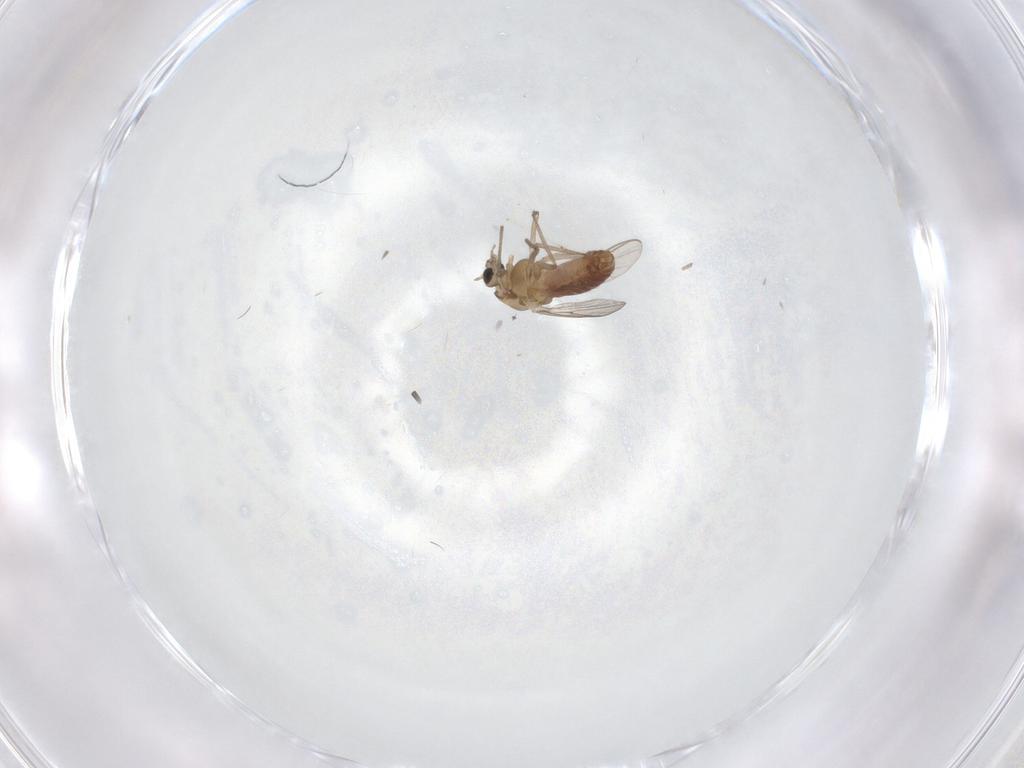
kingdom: Animalia
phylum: Arthropoda
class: Insecta
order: Diptera
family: Chironomidae
